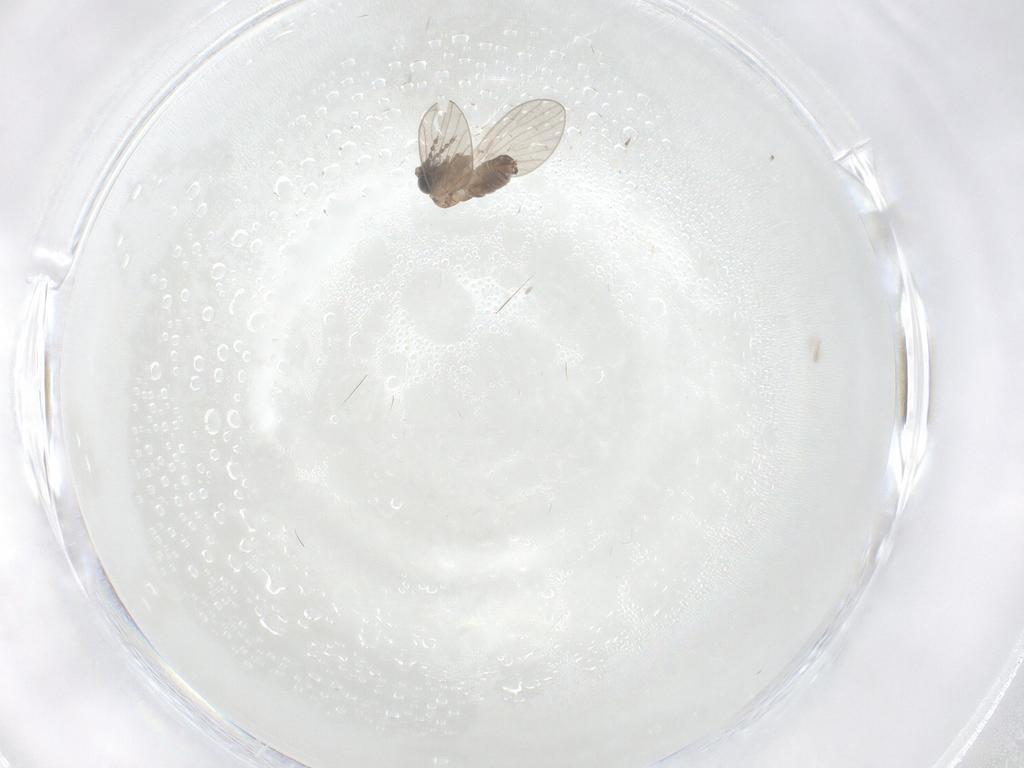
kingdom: Animalia
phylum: Arthropoda
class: Insecta
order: Diptera
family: Psychodidae
